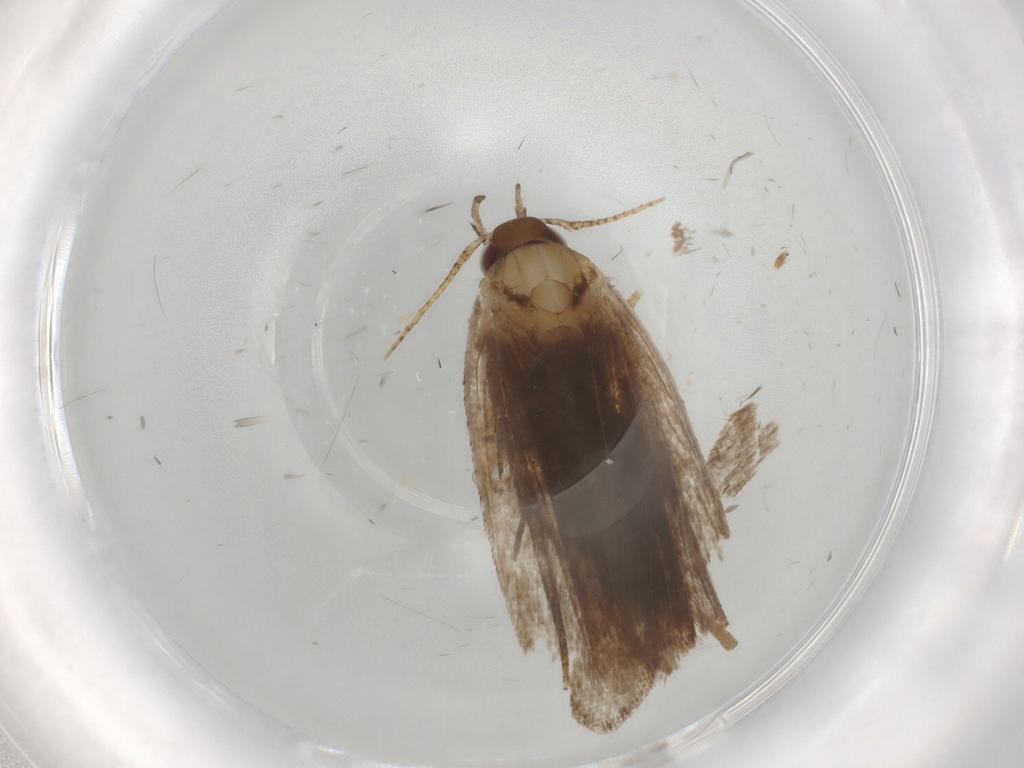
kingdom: Animalia
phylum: Arthropoda
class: Insecta
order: Lepidoptera
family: Gelechiidae
